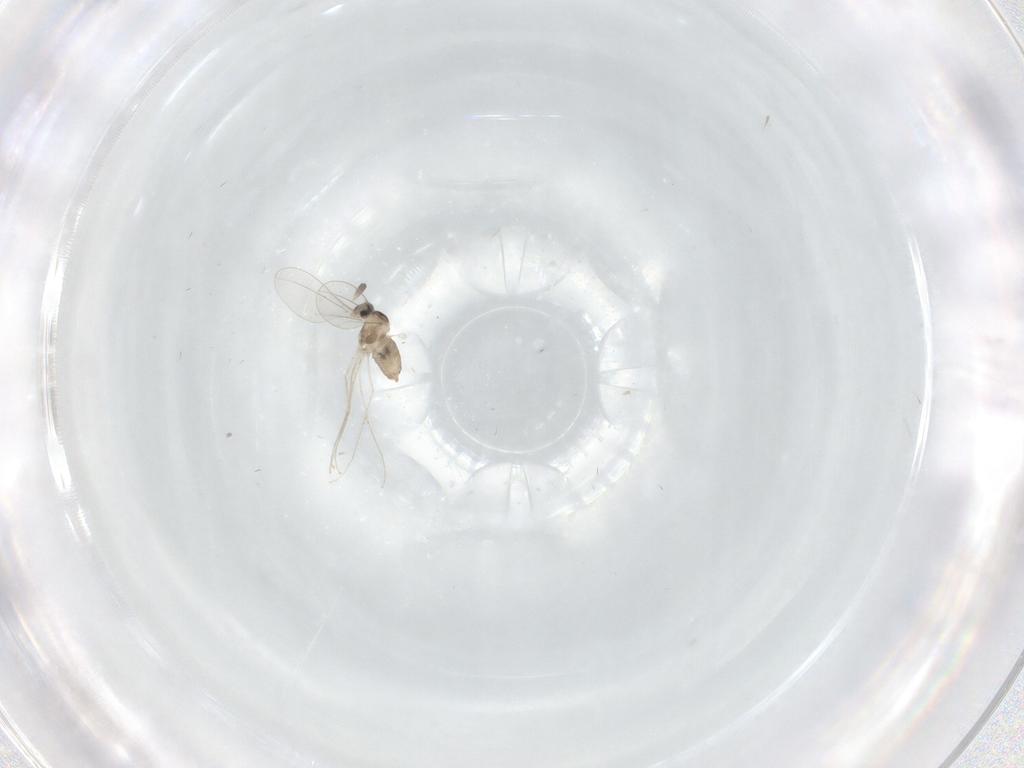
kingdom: Animalia
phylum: Arthropoda
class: Insecta
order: Diptera
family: Cecidomyiidae
